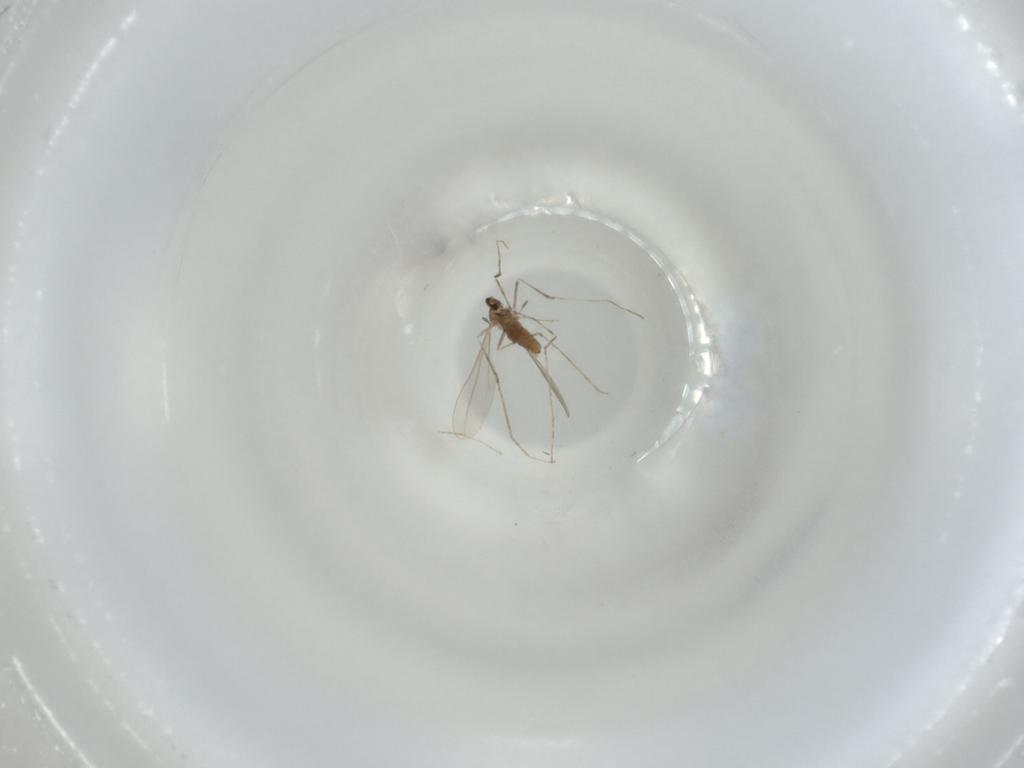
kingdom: Animalia
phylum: Arthropoda
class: Insecta
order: Diptera
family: Cecidomyiidae
